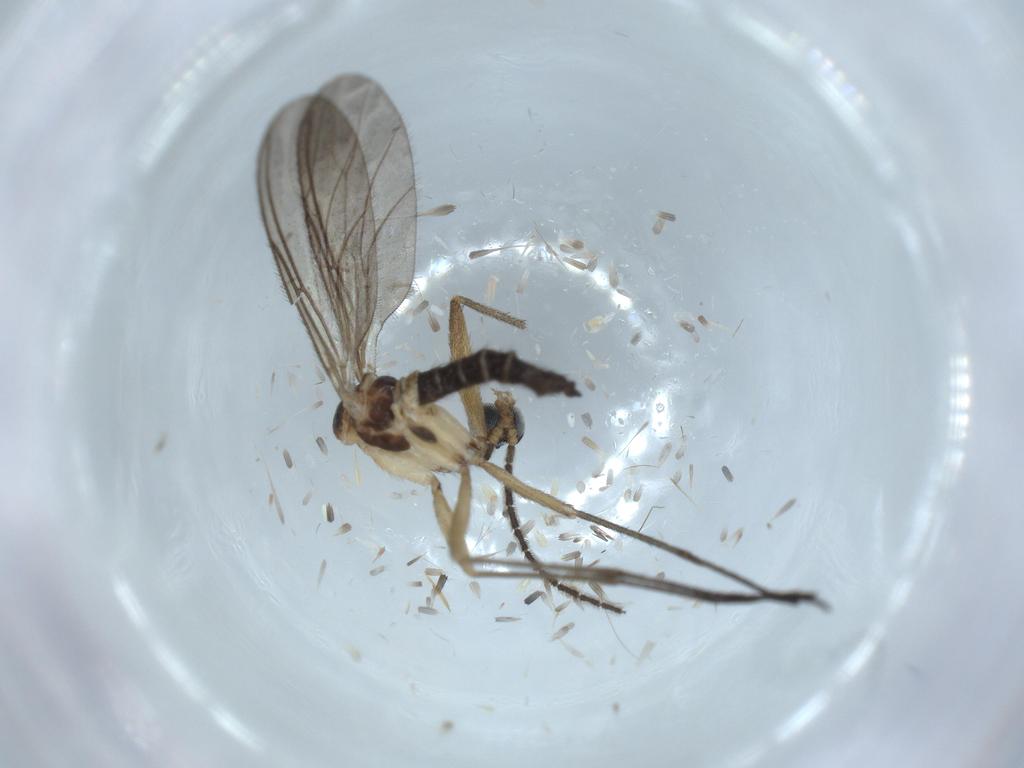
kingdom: Animalia
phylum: Arthropoda
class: Insecta
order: Diptera
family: Sciaridae
